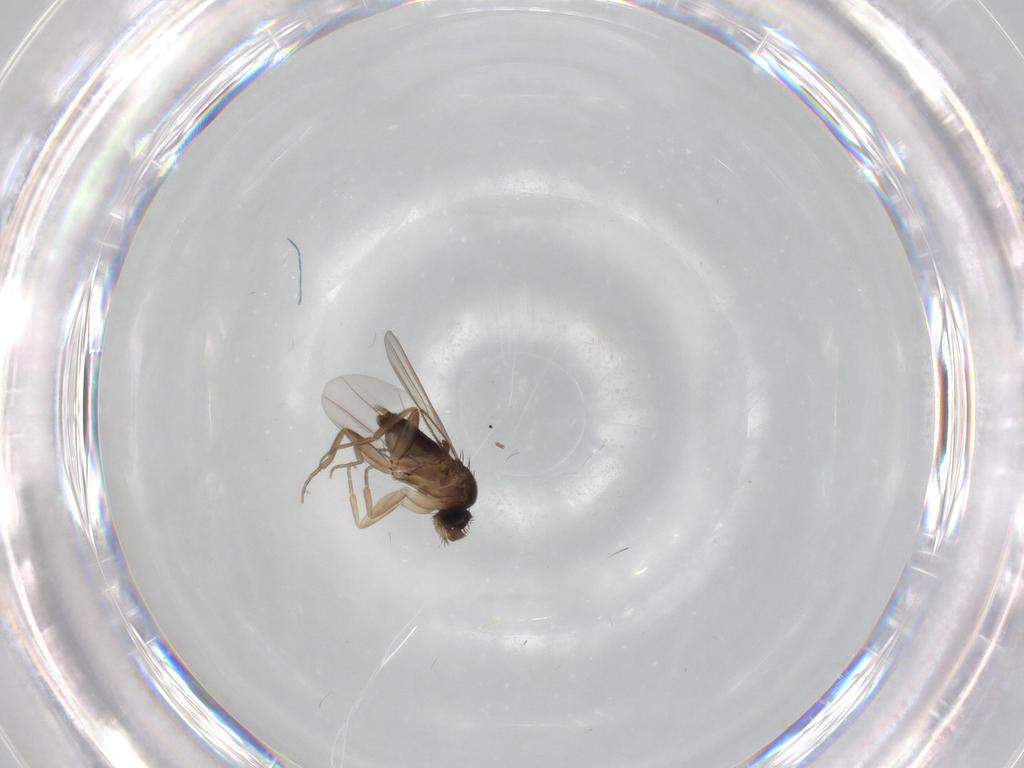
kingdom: Animalia
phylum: Arthropoda
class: Insecta
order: Diptera
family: Phoridae
